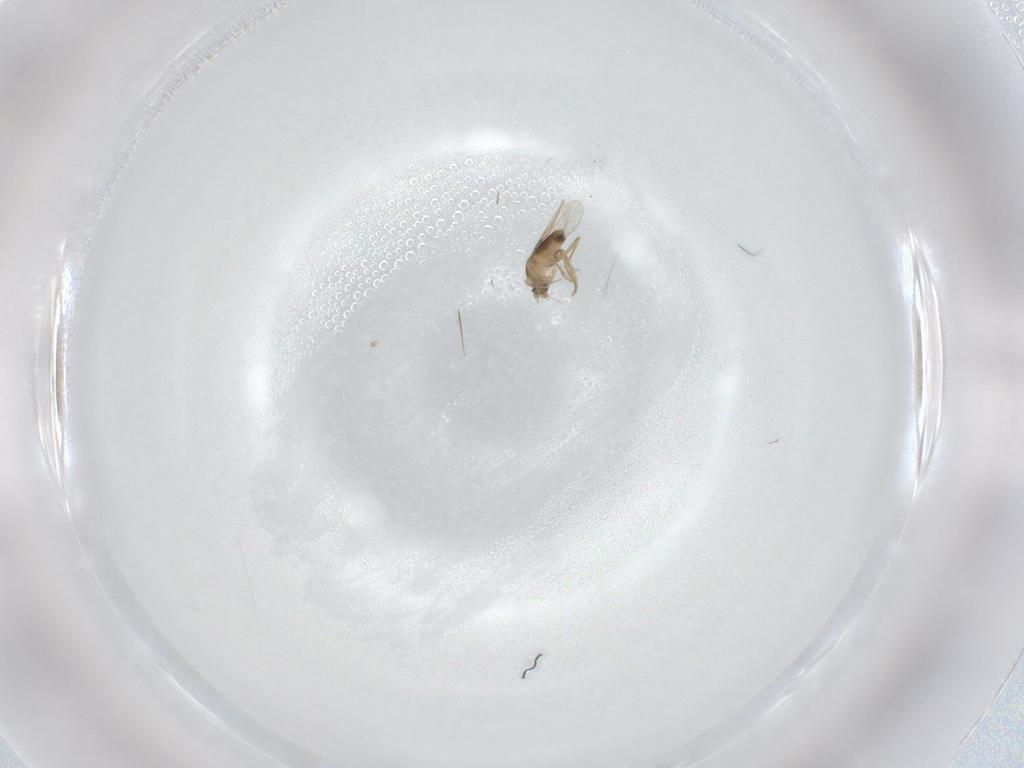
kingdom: Animalia
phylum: Arthropoda
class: Insecta
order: Diptera
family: Phoridae
